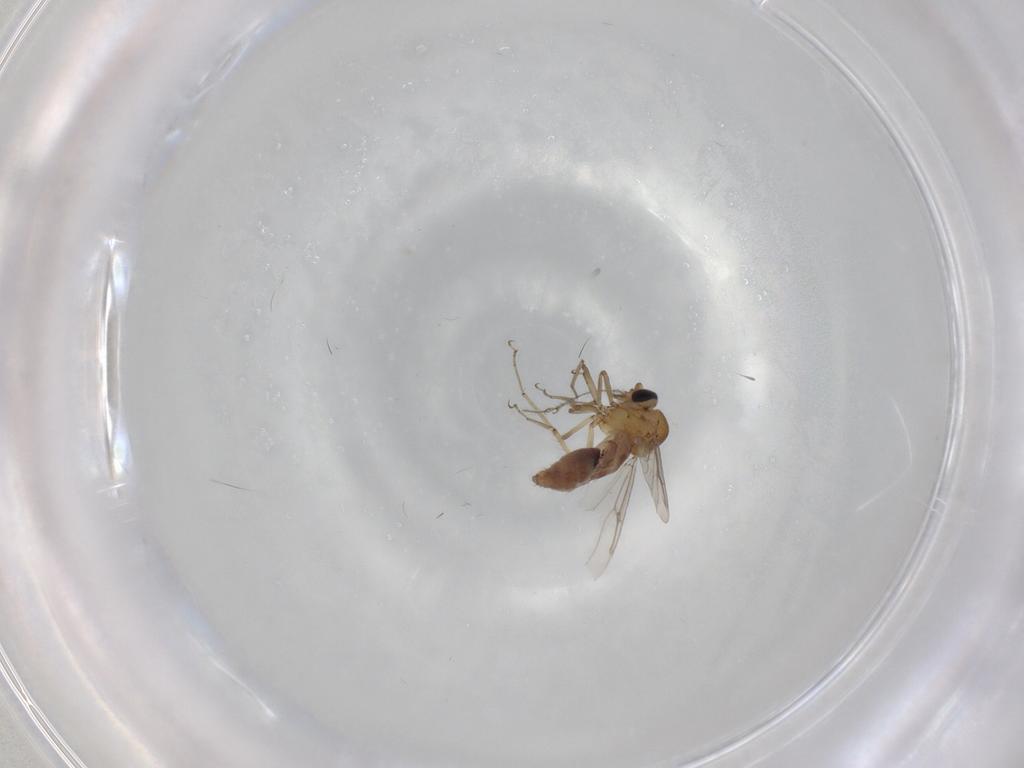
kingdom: Animalia
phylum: Arthropoda
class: Insecta
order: Diptera
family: Ceratopogonidae
